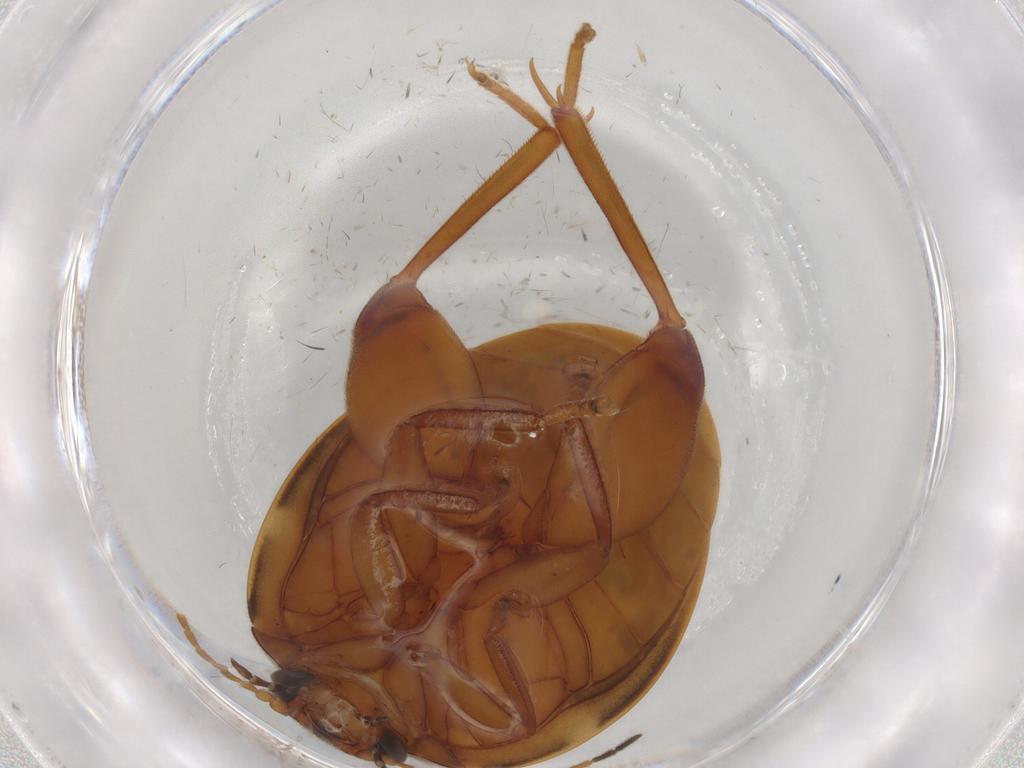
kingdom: Animalia
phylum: Arthropoda
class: Insecta
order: Coleoptera
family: Scirtidae
